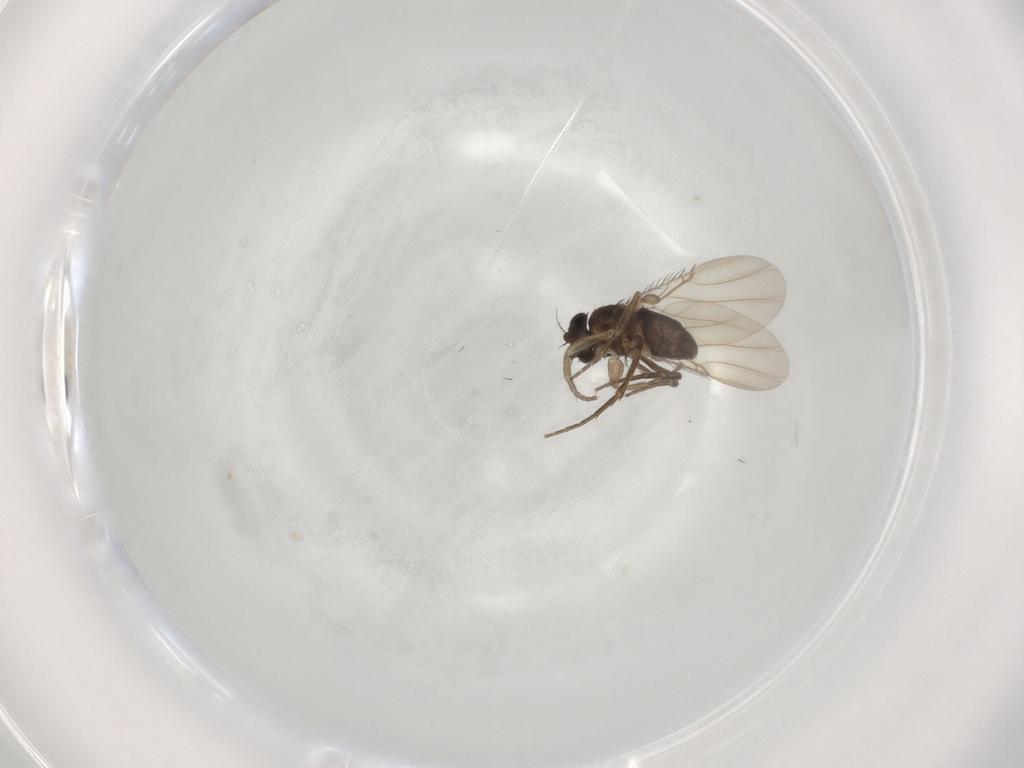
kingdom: Animalia
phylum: Arthropoda
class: Insecta
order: Diptera
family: Phoridae
